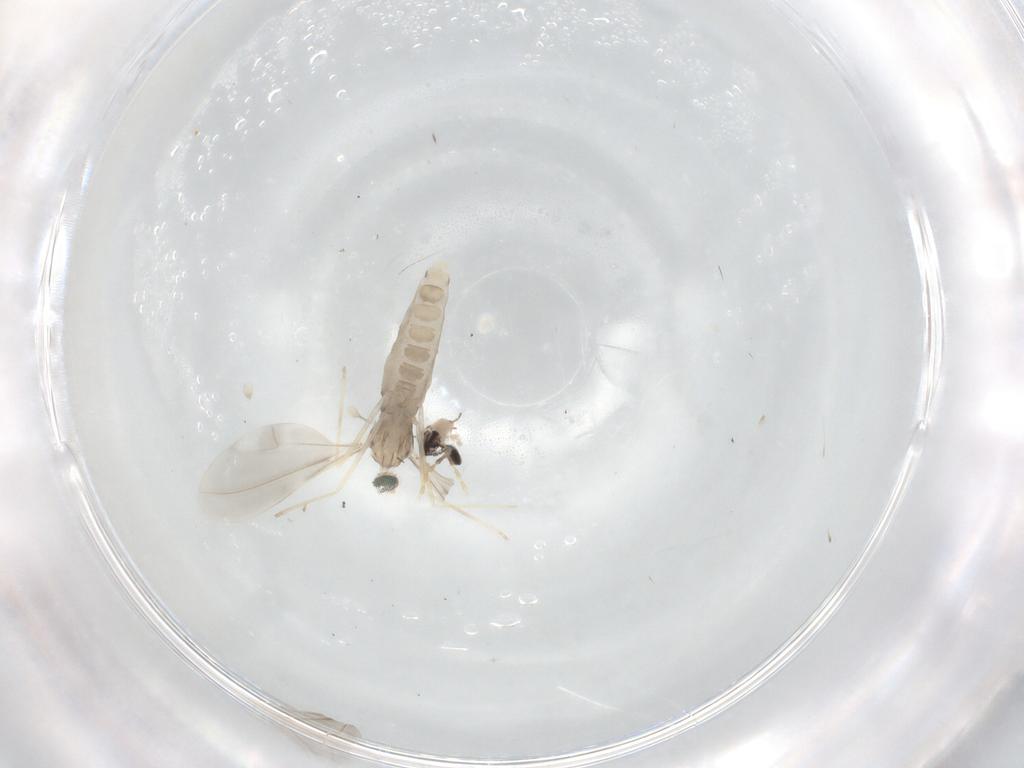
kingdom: Animalia
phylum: Arthropoda
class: Insecta
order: Diptera
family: Cecidomyiidae
